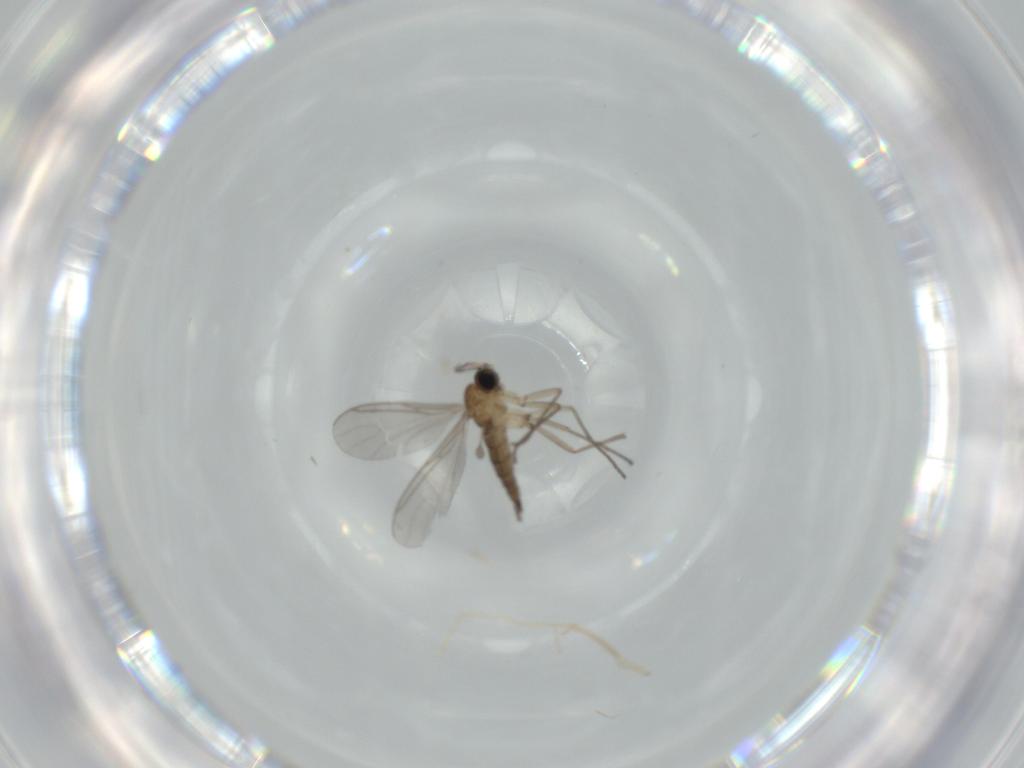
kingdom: Animalia
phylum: Arthropoda
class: Insecta
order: Diptera
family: Sciaridae
